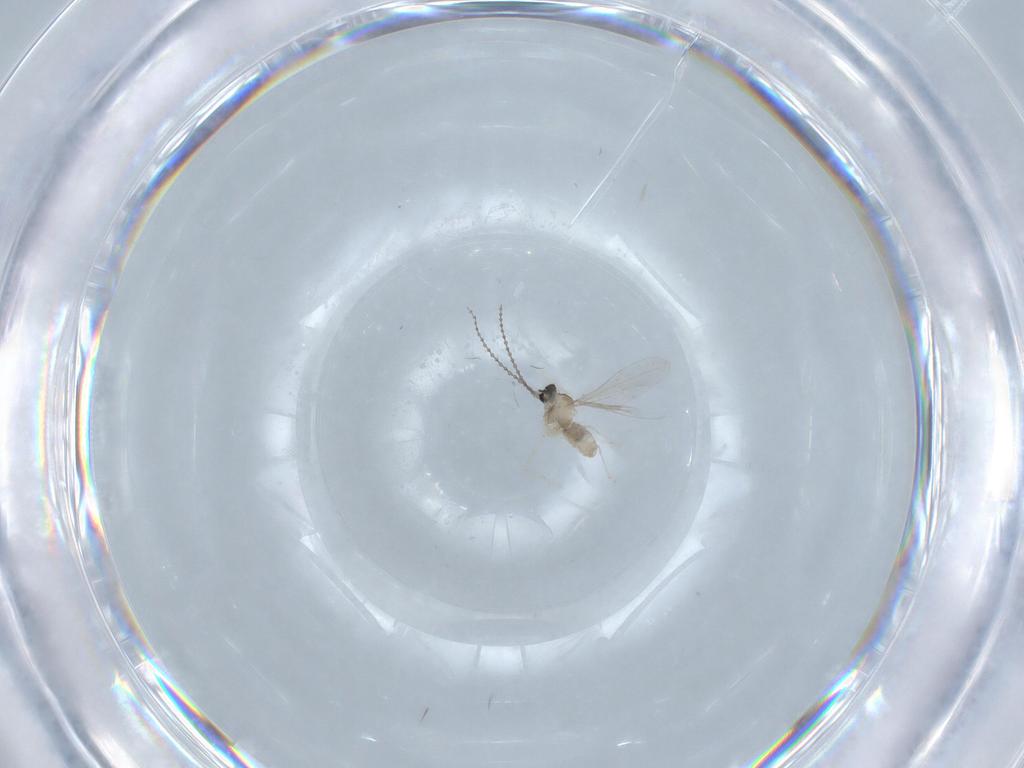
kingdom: Animalia
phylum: Arthropoda
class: Insecta
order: Diptera
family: Cecidomyiidae
